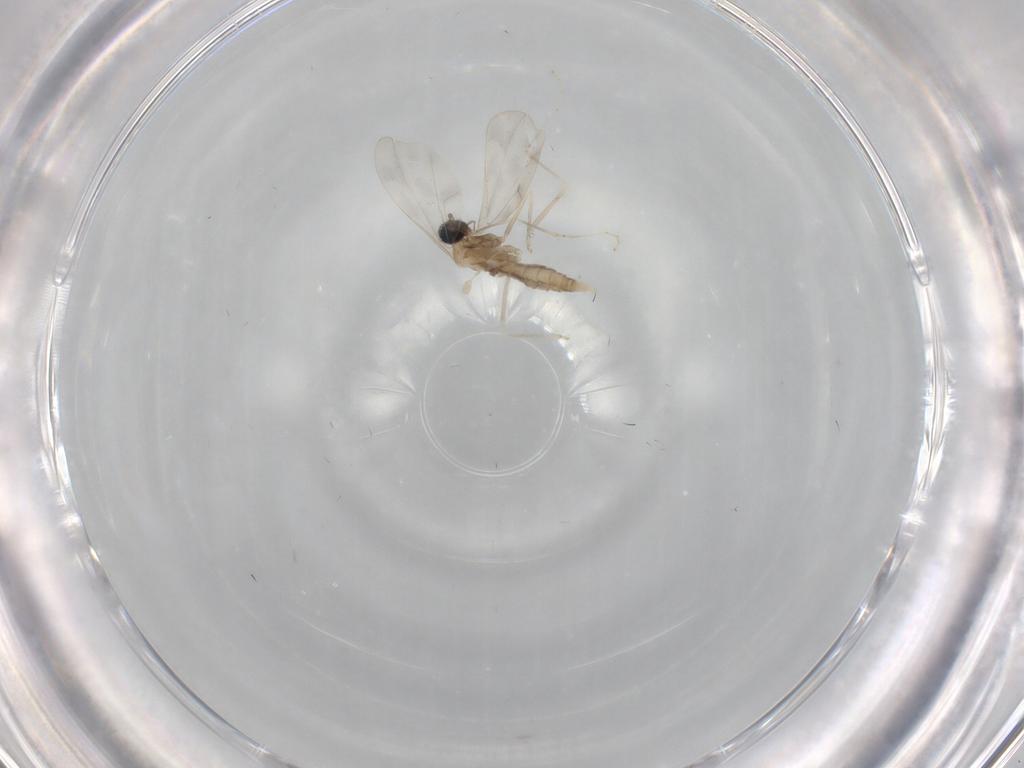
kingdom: Animalia
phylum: Arthropoda
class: Insecta
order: Diptera
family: Cecidomyiidae
